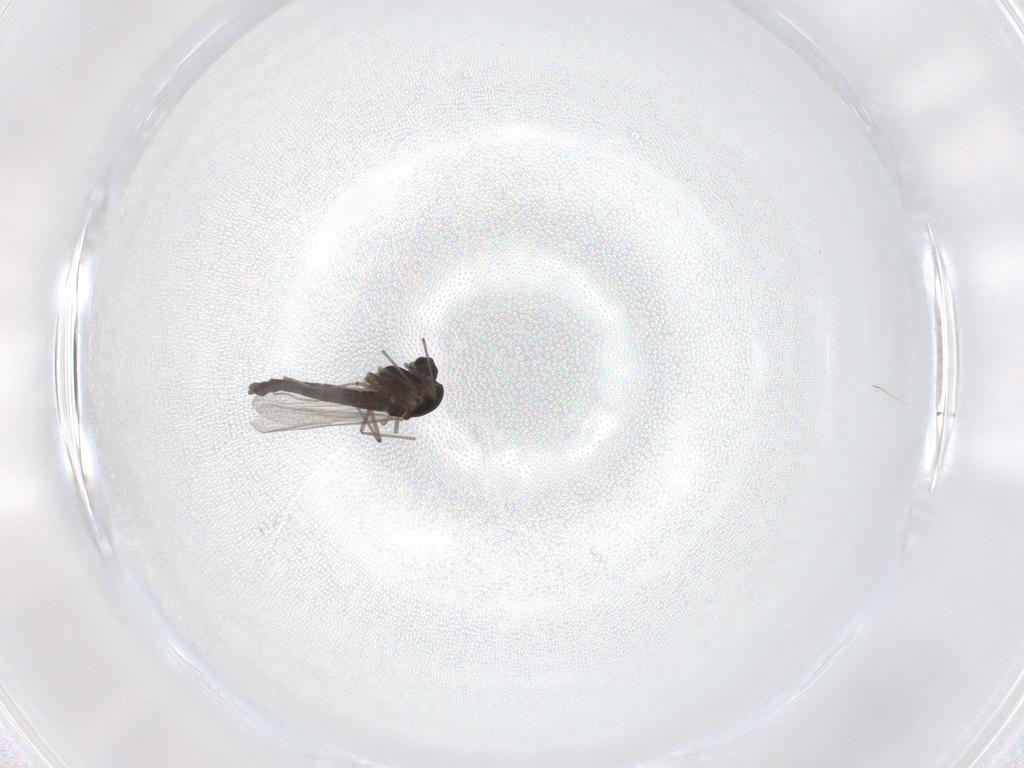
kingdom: Animalia
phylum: Arthropoda
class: Insecta
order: Diptera
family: Chironomidae
